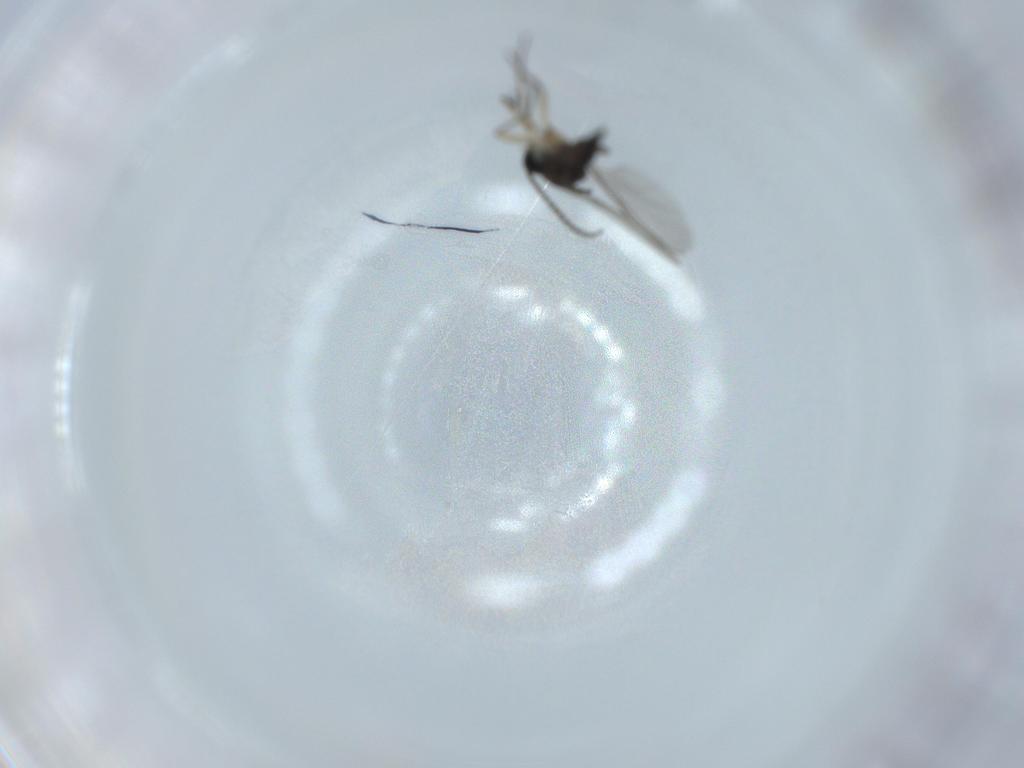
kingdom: Animalia
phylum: Arthropoda
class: Insecta
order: Diptera
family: Sciaridae
